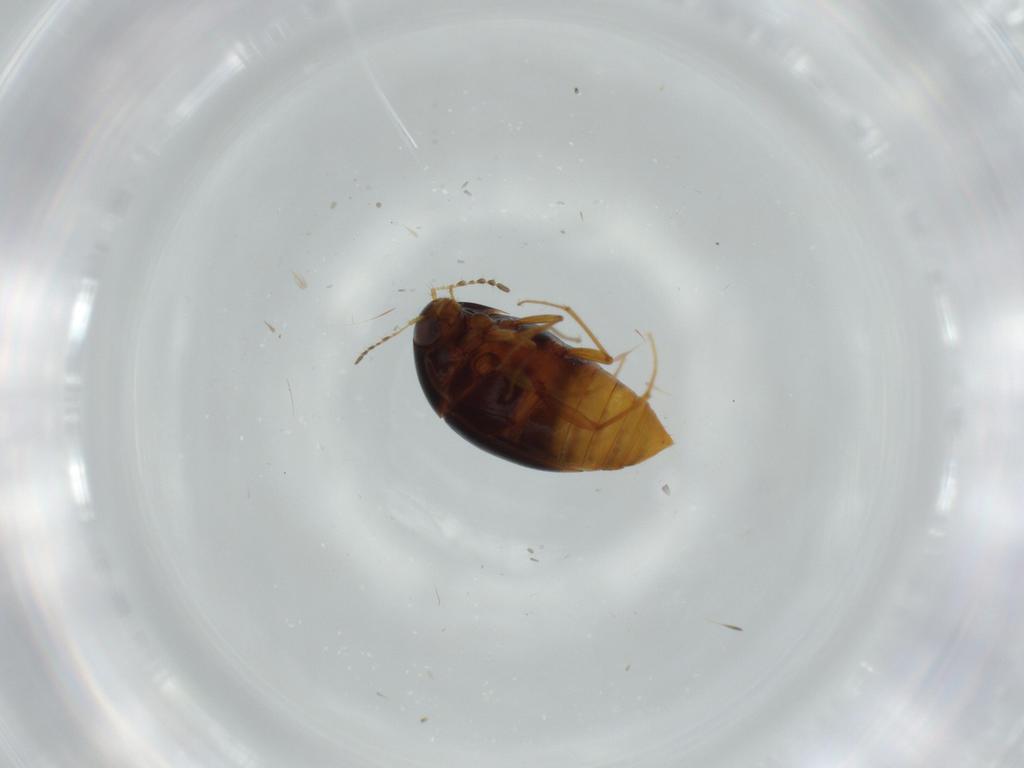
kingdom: Animalia
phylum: Arthropoda
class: Insecta
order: Coleoptera
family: Staphylinidae
